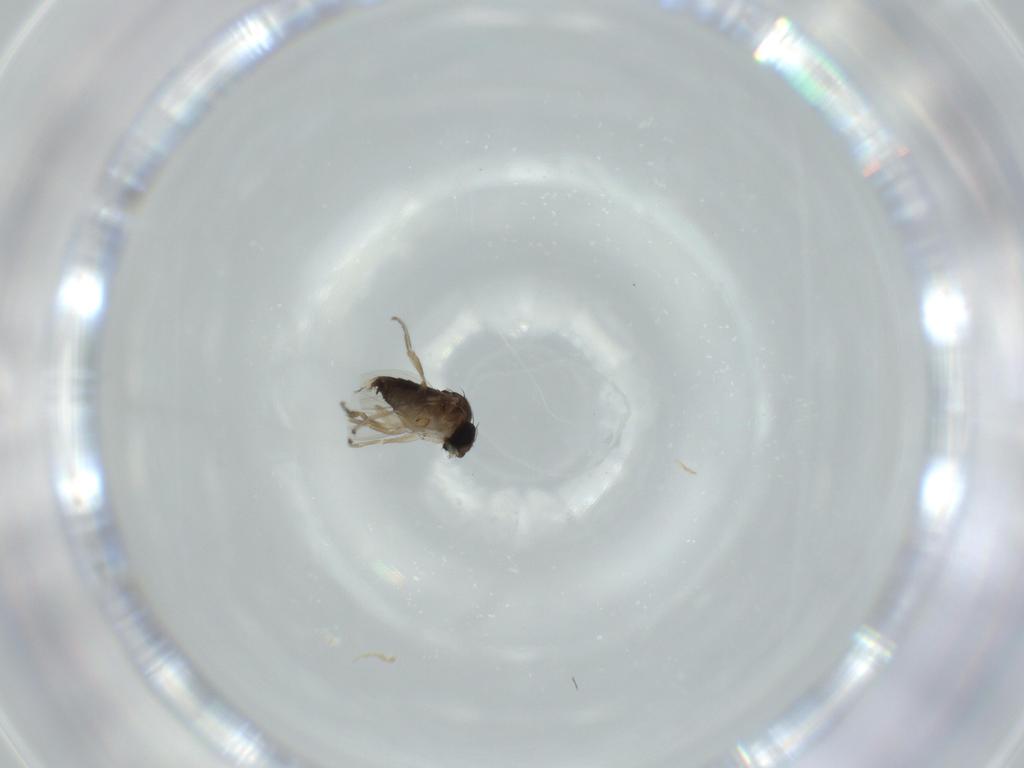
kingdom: Animalia
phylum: Arthropoda
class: Insecta
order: Diptera
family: Phoridae
